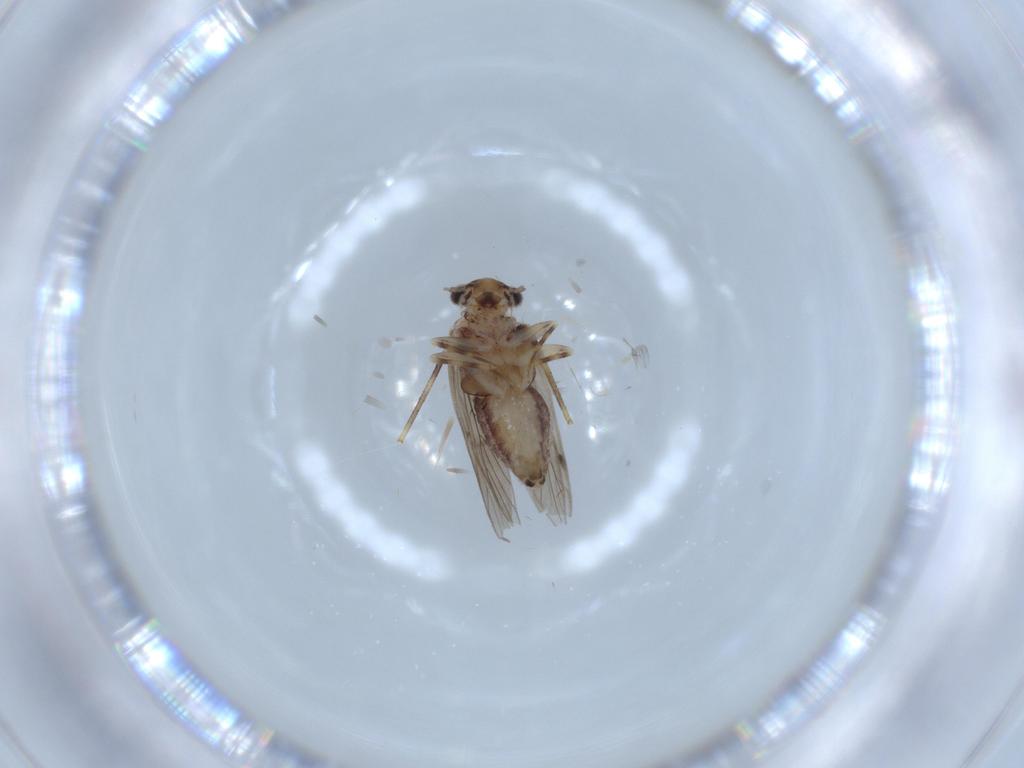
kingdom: Animalia
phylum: Arthropoda
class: Insecta
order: Psocodea
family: Lepidopsocidae
